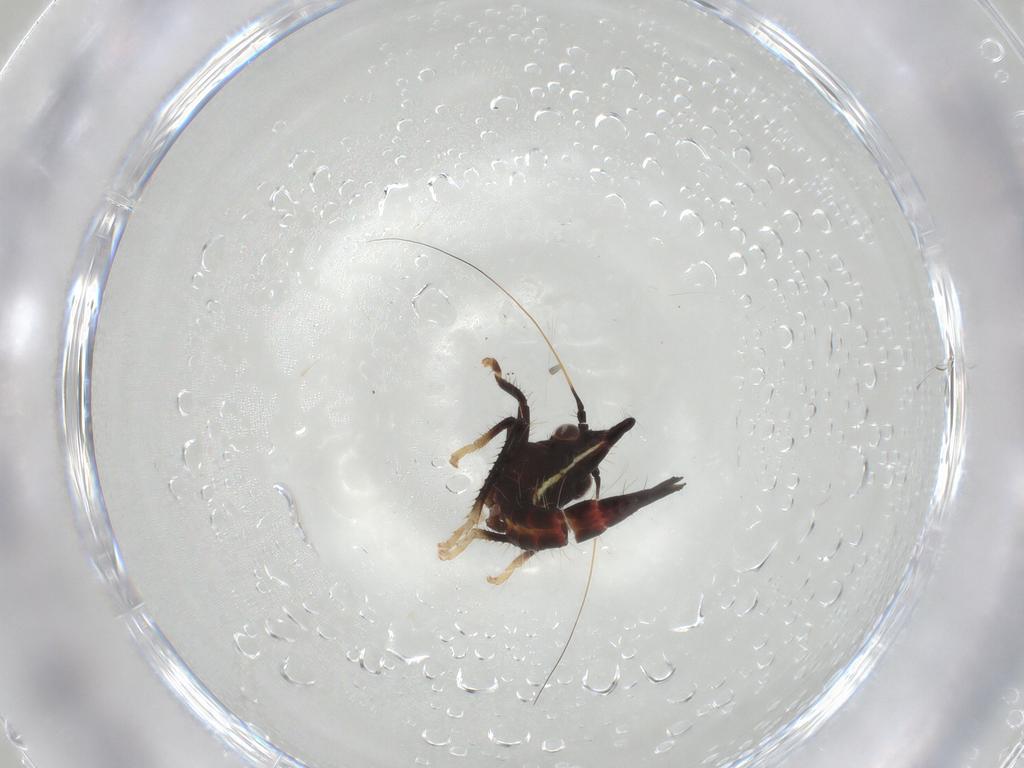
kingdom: Animalia
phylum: Arthropoda
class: Insecta
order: Hemiptera
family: Cicadellidae
